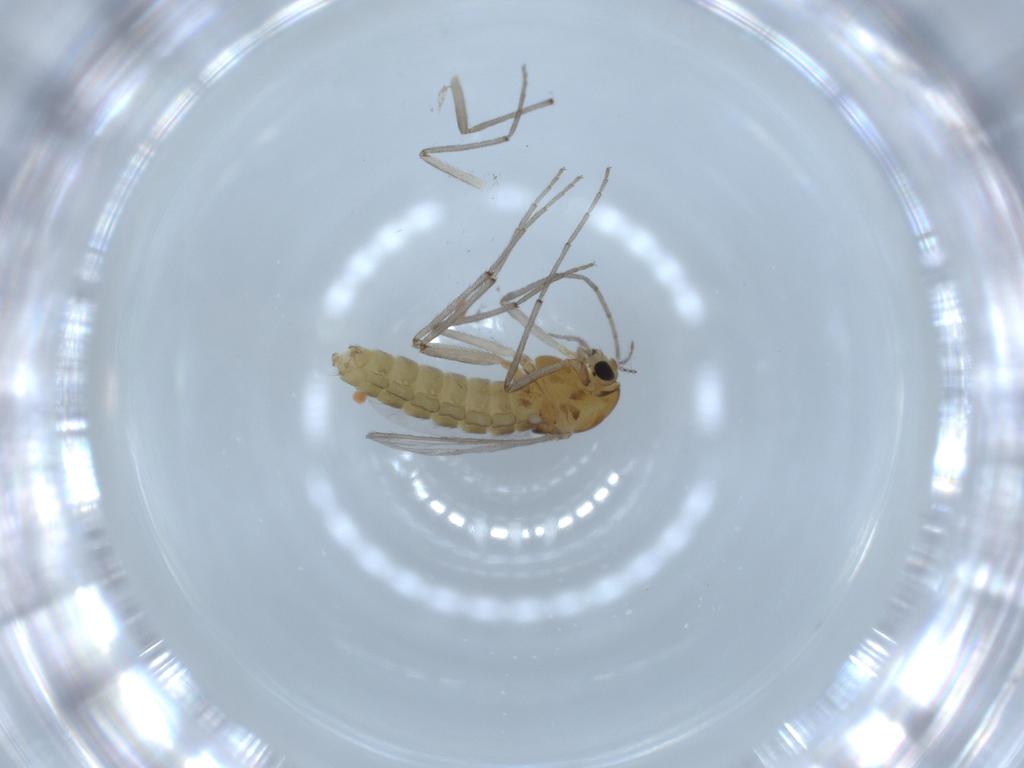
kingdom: Animalia
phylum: Arthropoda
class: Insecta
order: Diptera
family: Cecidomyiidae
